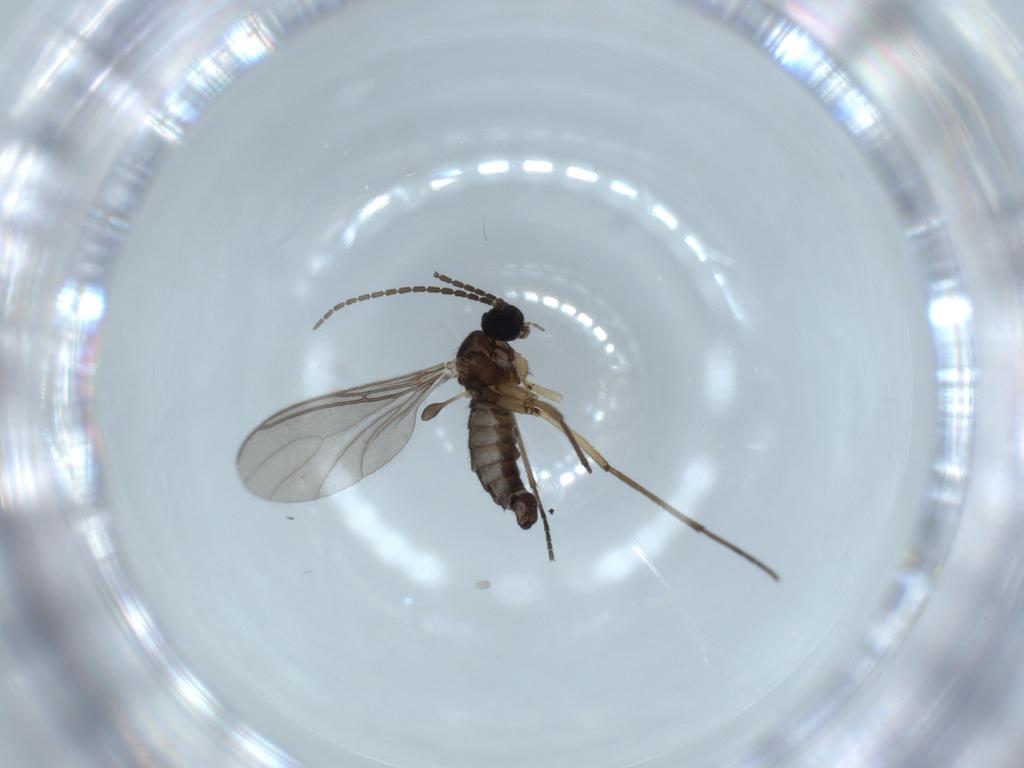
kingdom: Animalia
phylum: Arthropoda
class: Insecta
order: Diptera
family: Sciaridae
